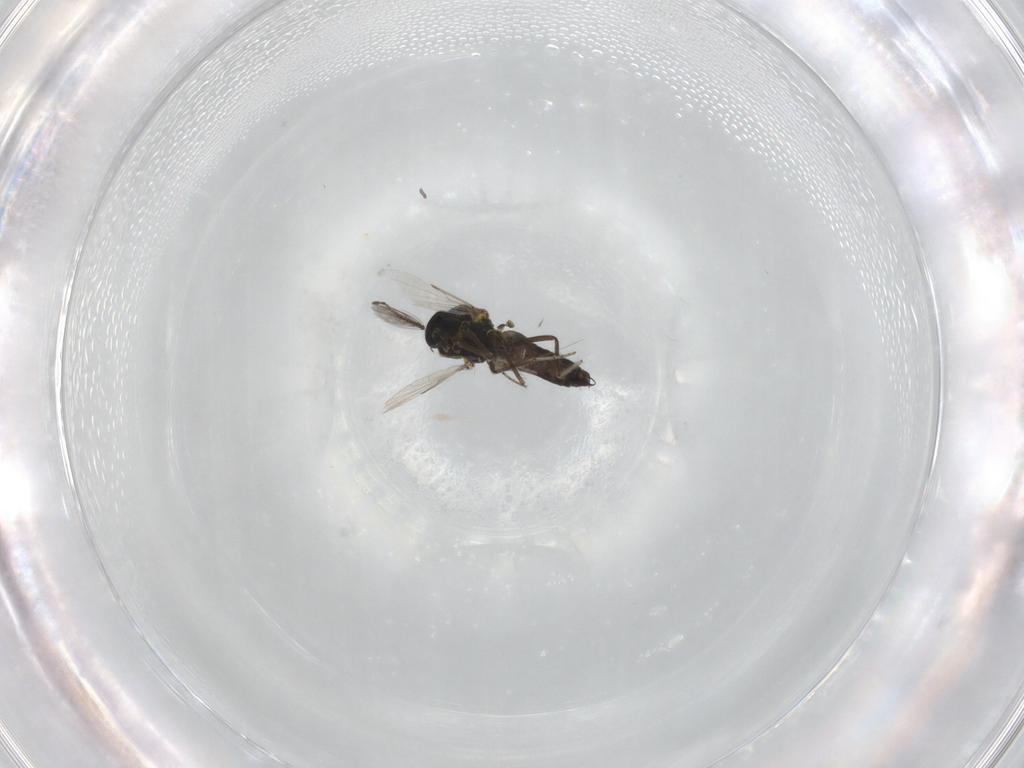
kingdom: Animalia
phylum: Arthropoda
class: Insecta
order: Diptera
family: Ceratopogonidae
